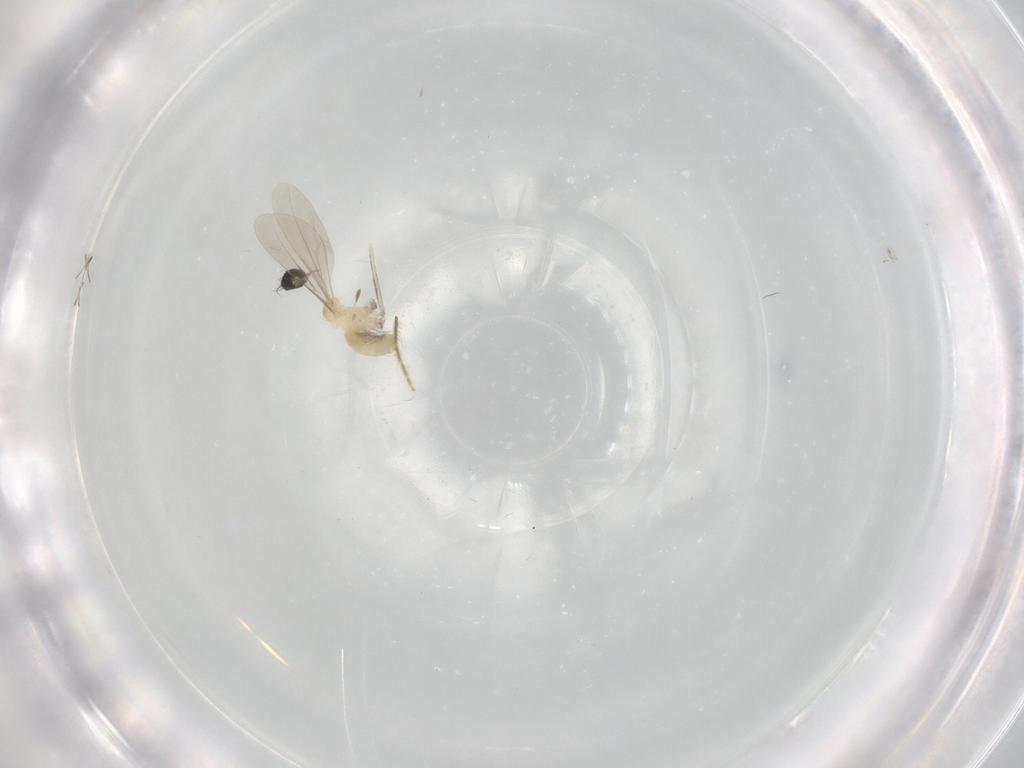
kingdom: Animalia
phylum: Arthropoda
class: Insecta
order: Diptera
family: Cecidomyiidae
